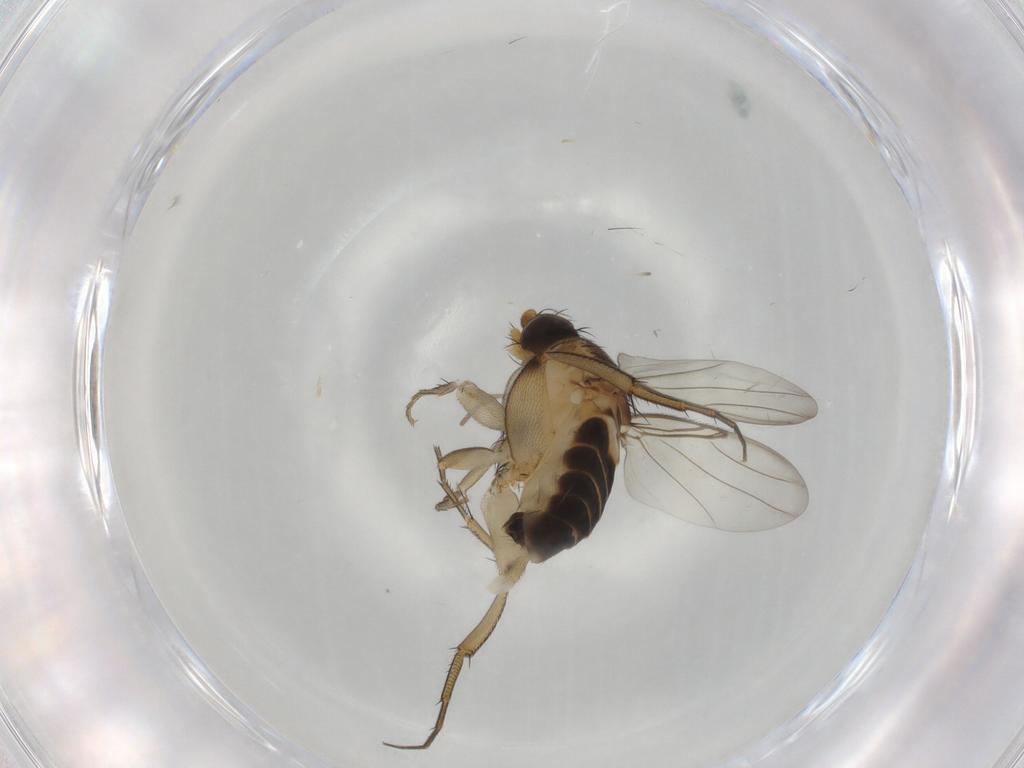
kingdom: Animalia
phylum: Arthropoda
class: Insecta
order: Diptera
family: Phoridae
